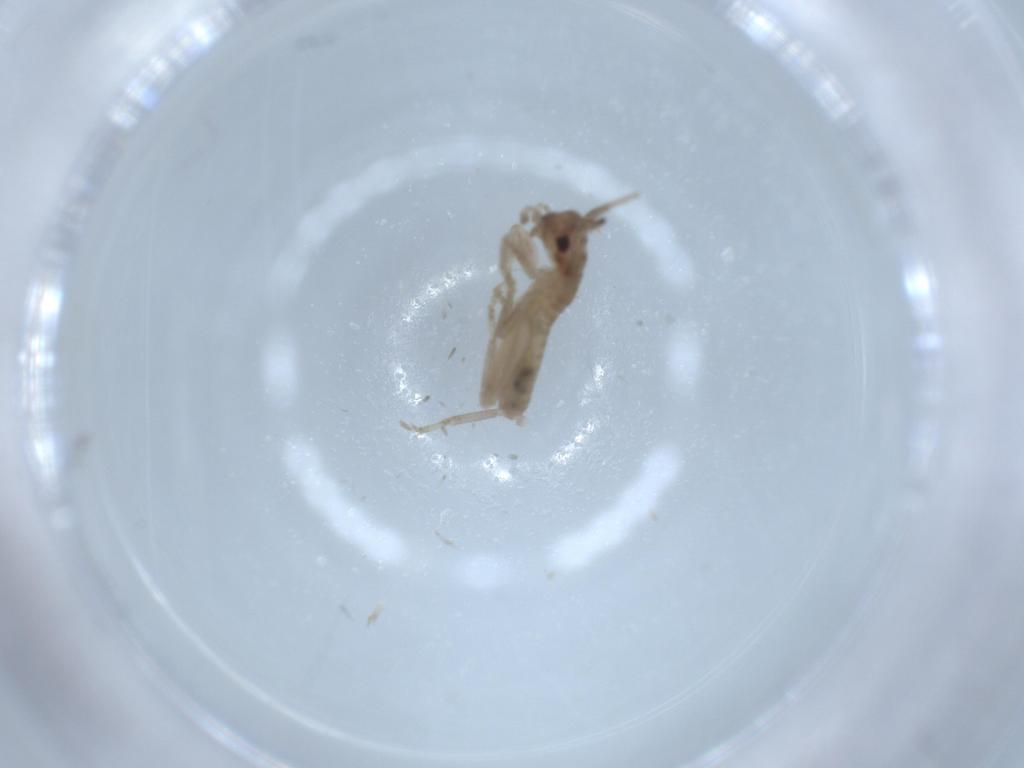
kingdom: Animalia
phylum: Arthropoda
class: Insecta
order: Orthoptera
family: Mogoplistidae
